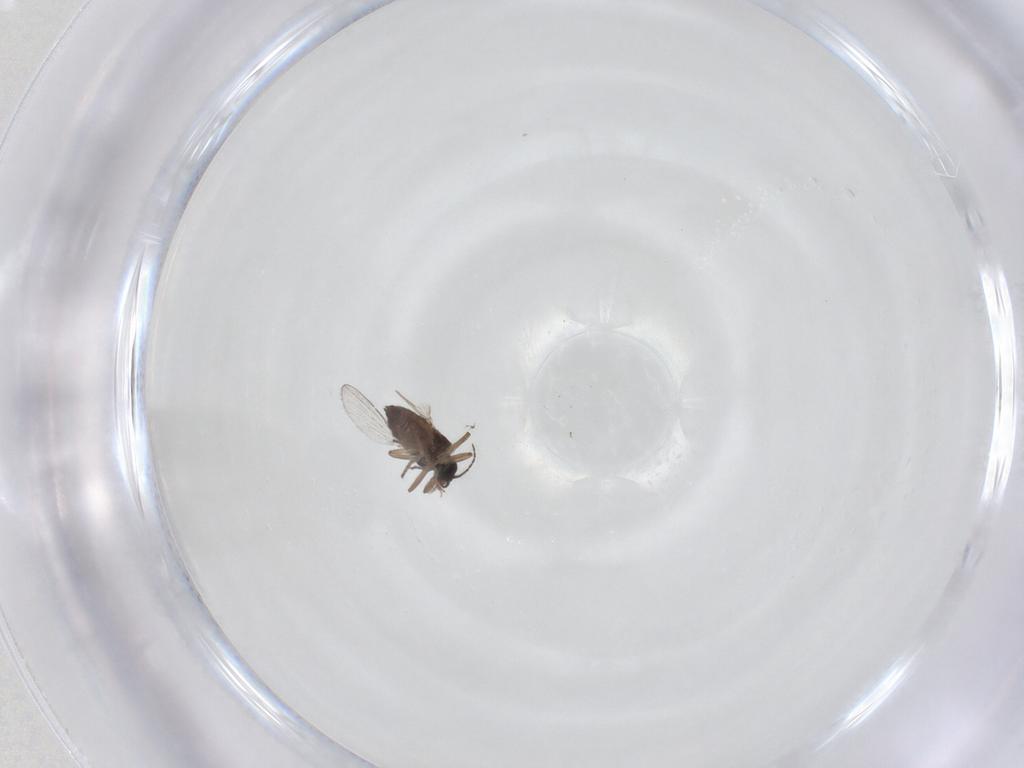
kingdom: Animalia
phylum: Arthropoda
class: Insecta
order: Diptera
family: Ceratopogonidae
